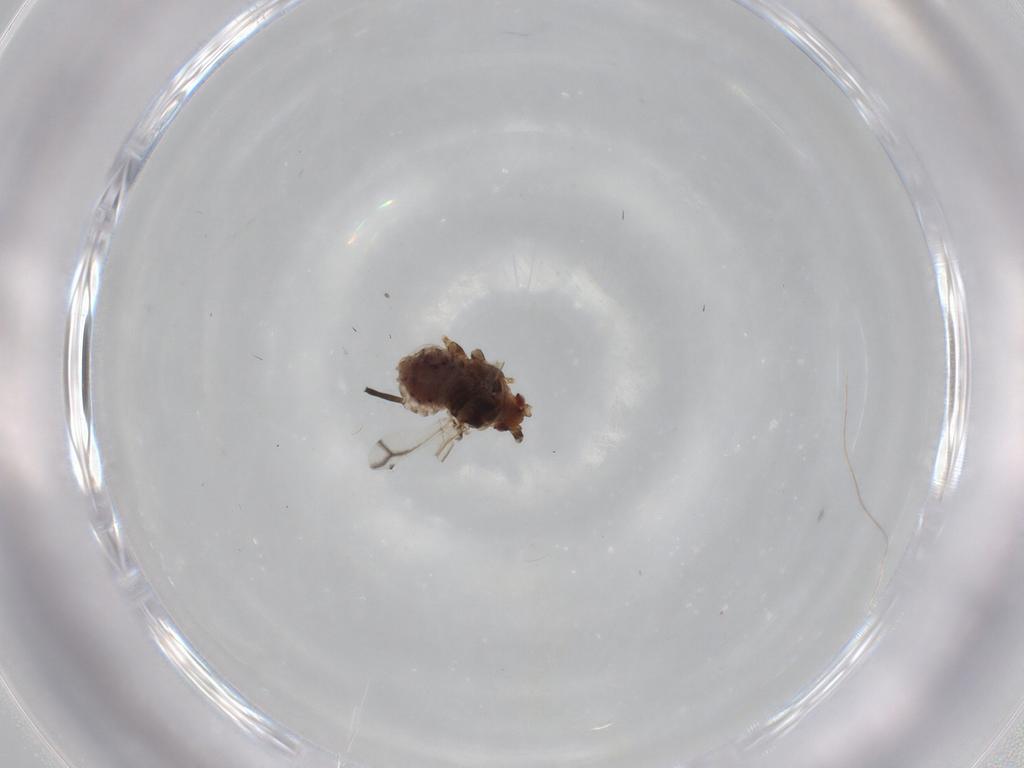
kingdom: Animalia
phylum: Arthropoda
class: Insecta
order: Hemiptera
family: Aphididae
